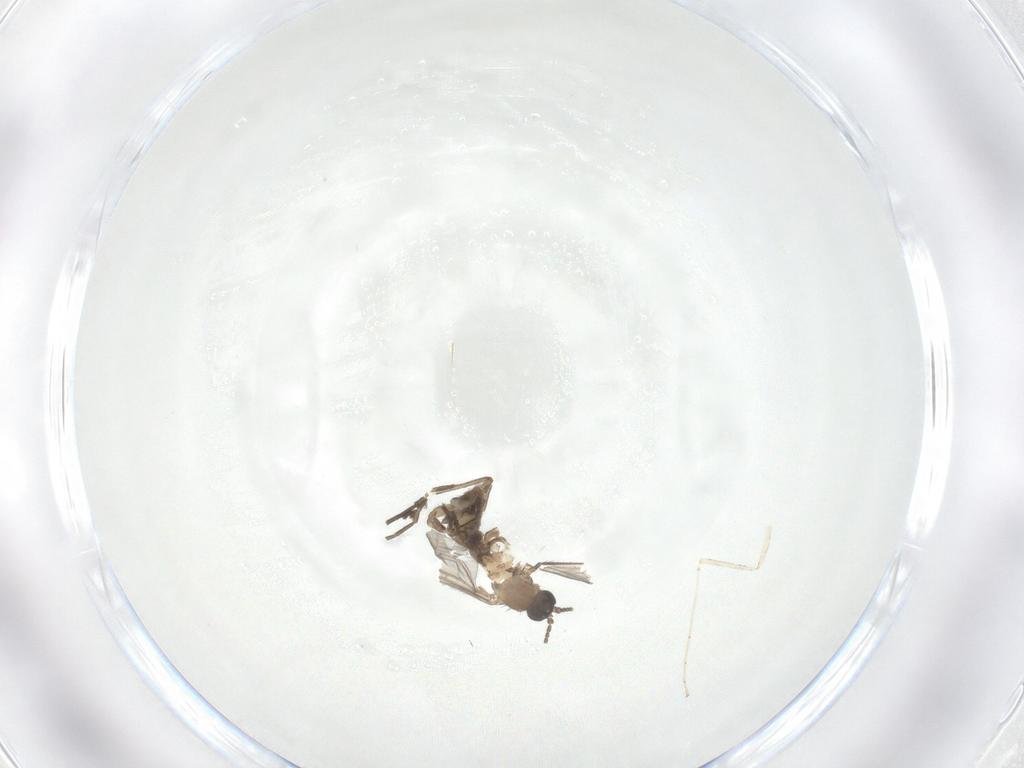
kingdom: Animalia
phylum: Arthropoda
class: Insecta
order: Diptera
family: Sciaridae
